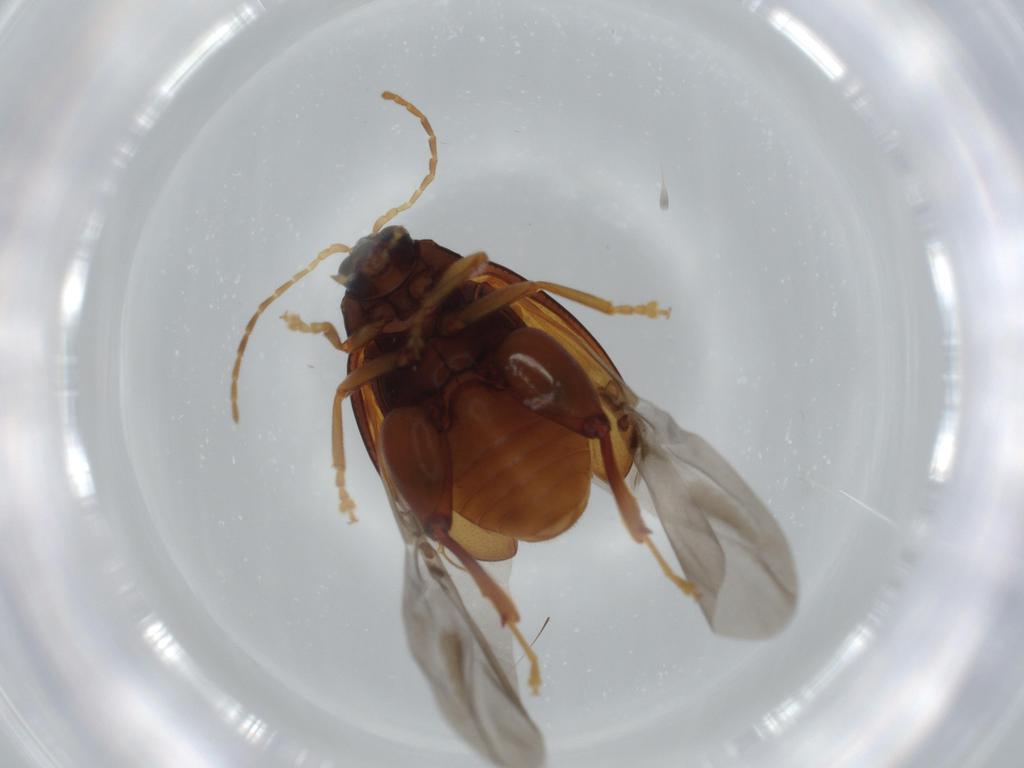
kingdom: Animalia
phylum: Arthropoda
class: Insecta
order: Coleoptera
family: Chrysomelidae
